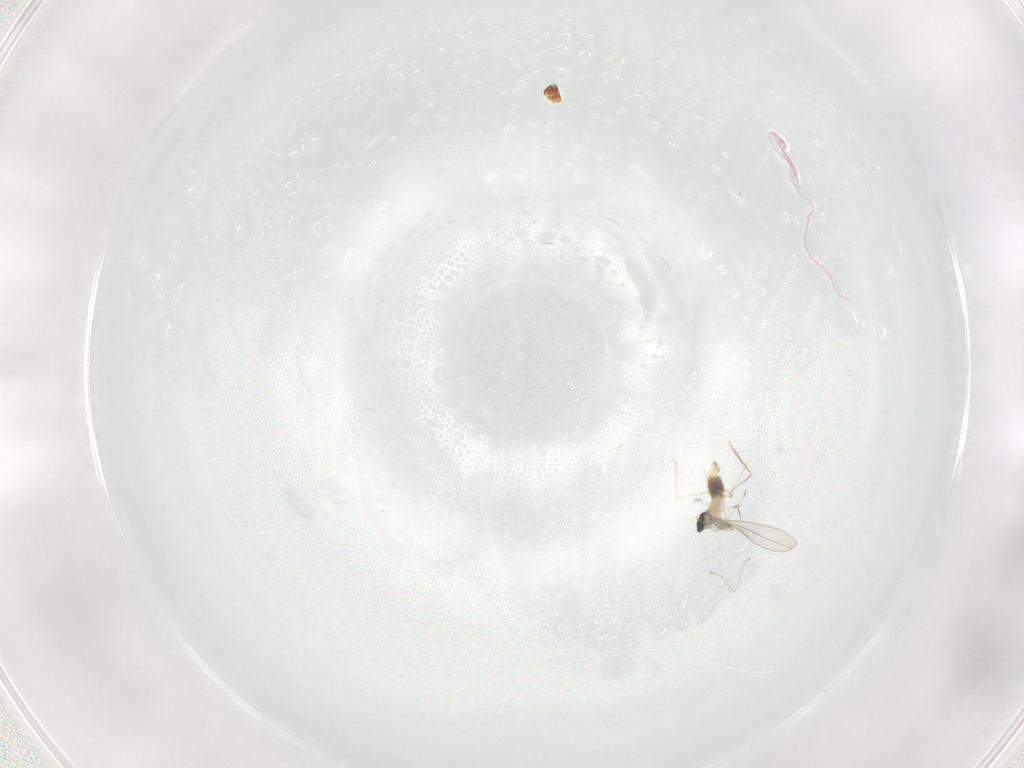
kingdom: Animalia
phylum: Arthropoda
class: Insecta
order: Diptera
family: Cecidomyiidae
